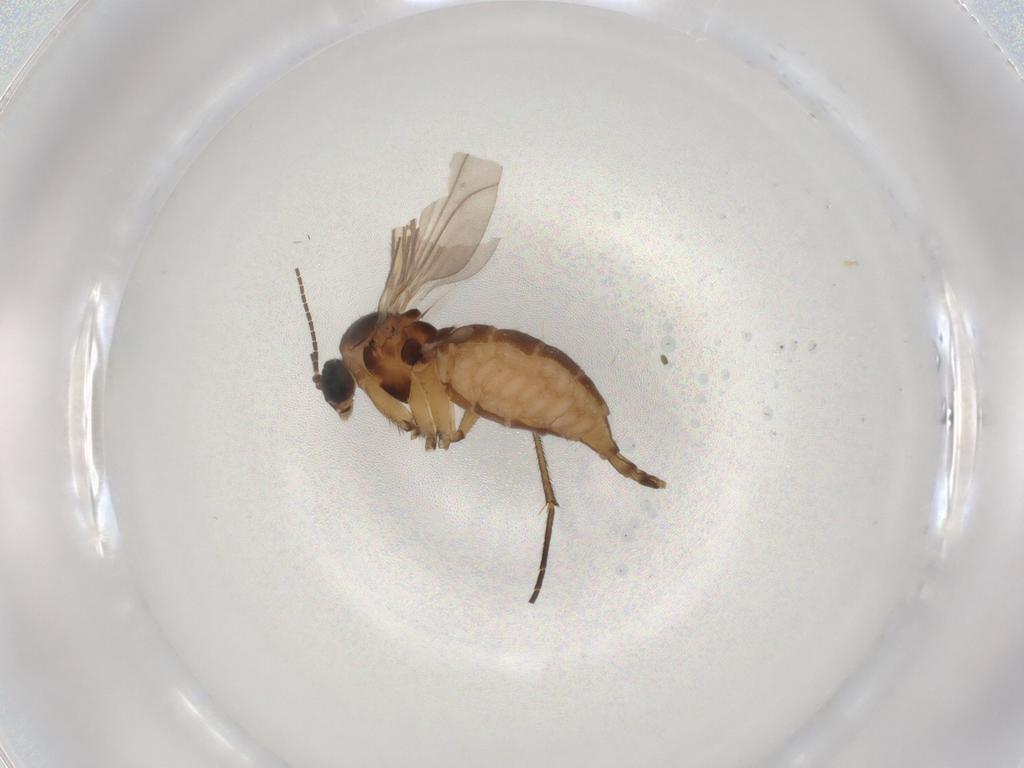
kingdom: Animalia
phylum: Arthropoda
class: Insecta
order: Diptera
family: Sciaridae
